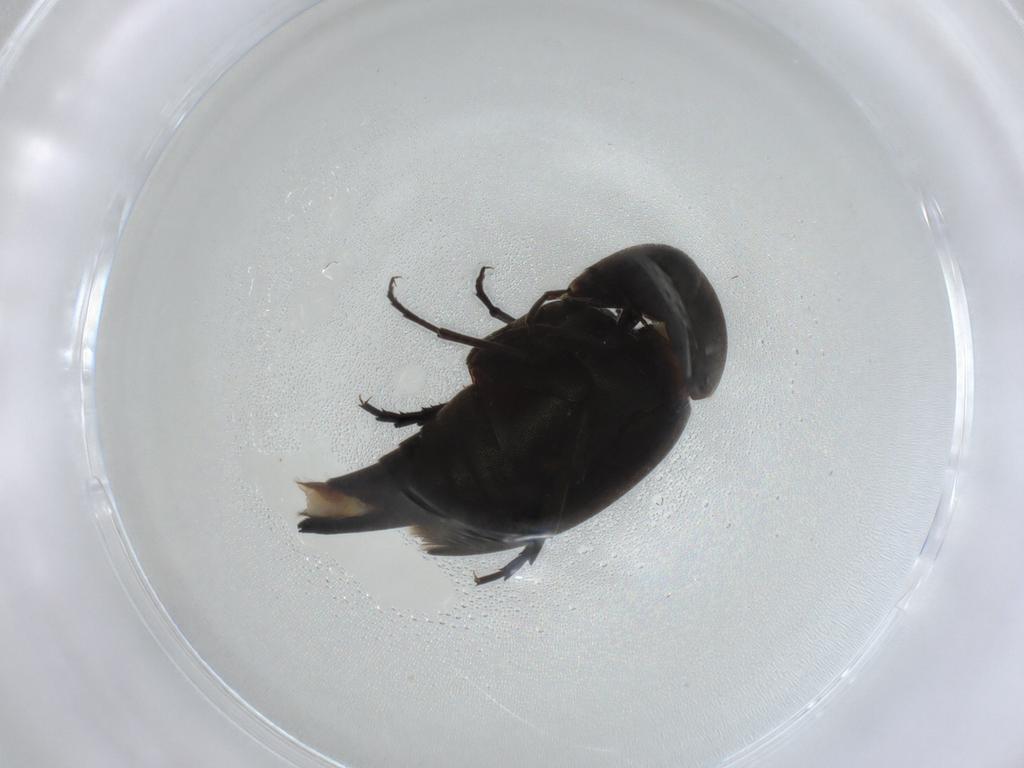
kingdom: Animalia
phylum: Arthropoda
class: Insecta
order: Coleoptera
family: Mordellidae
